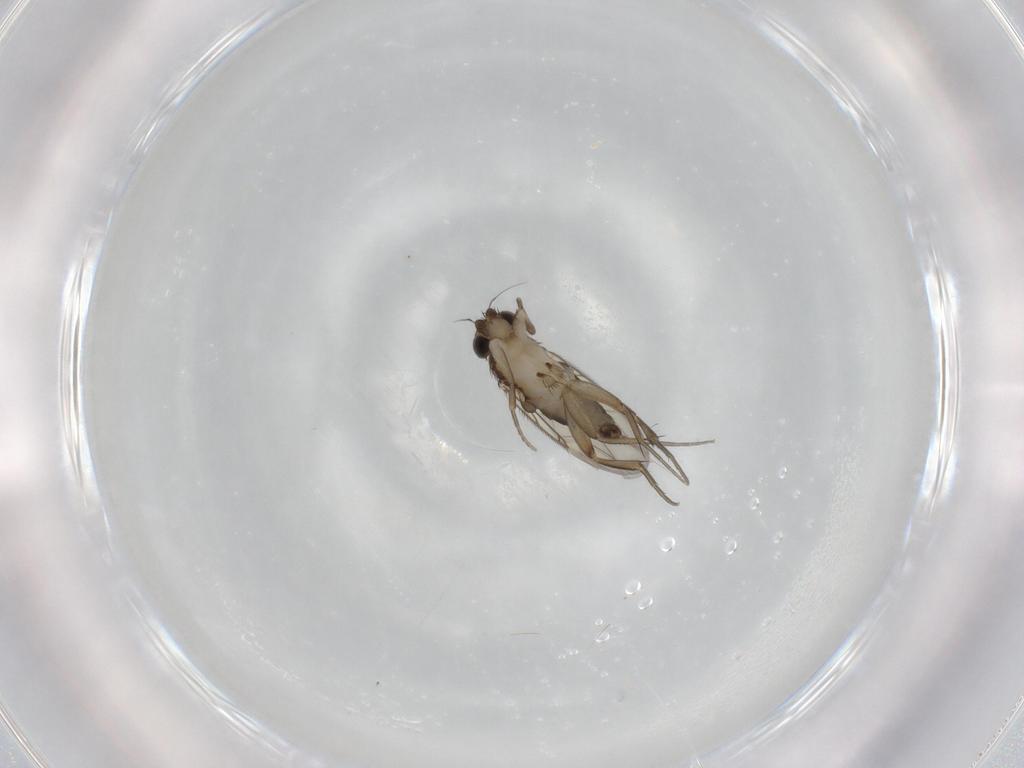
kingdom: Animalia
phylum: Arthropoda
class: Insecta
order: Diptera
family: Phoridae
